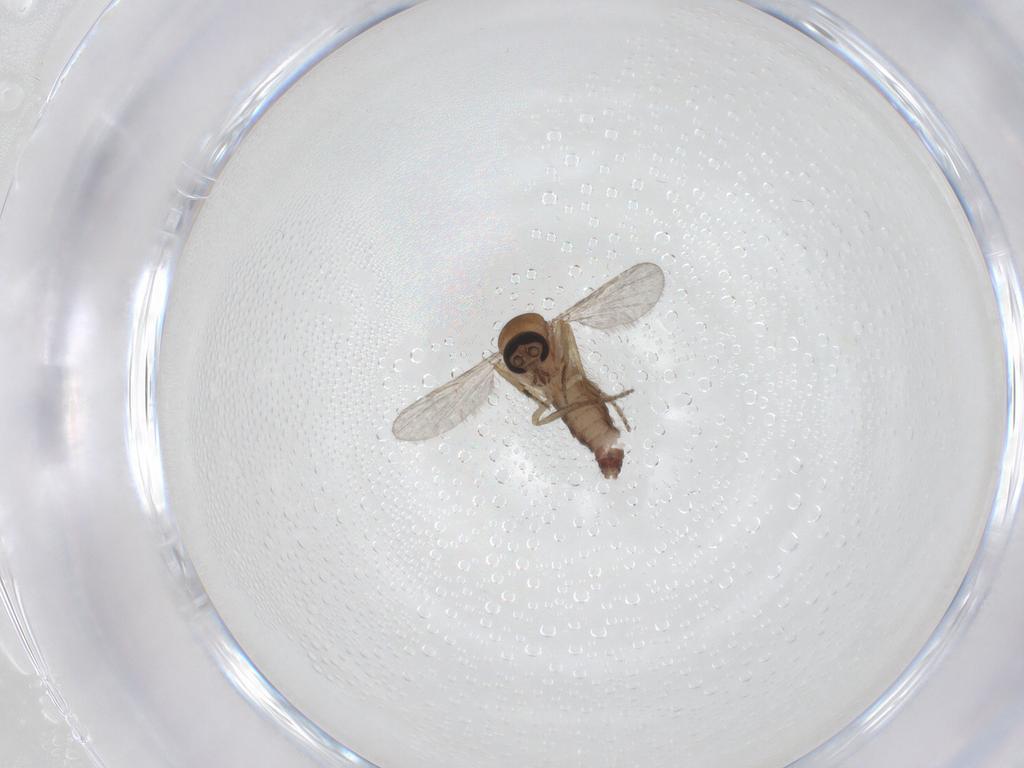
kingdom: Animalia
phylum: Arthropoda
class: Insecta
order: Diptera
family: Ceratopogonidae
